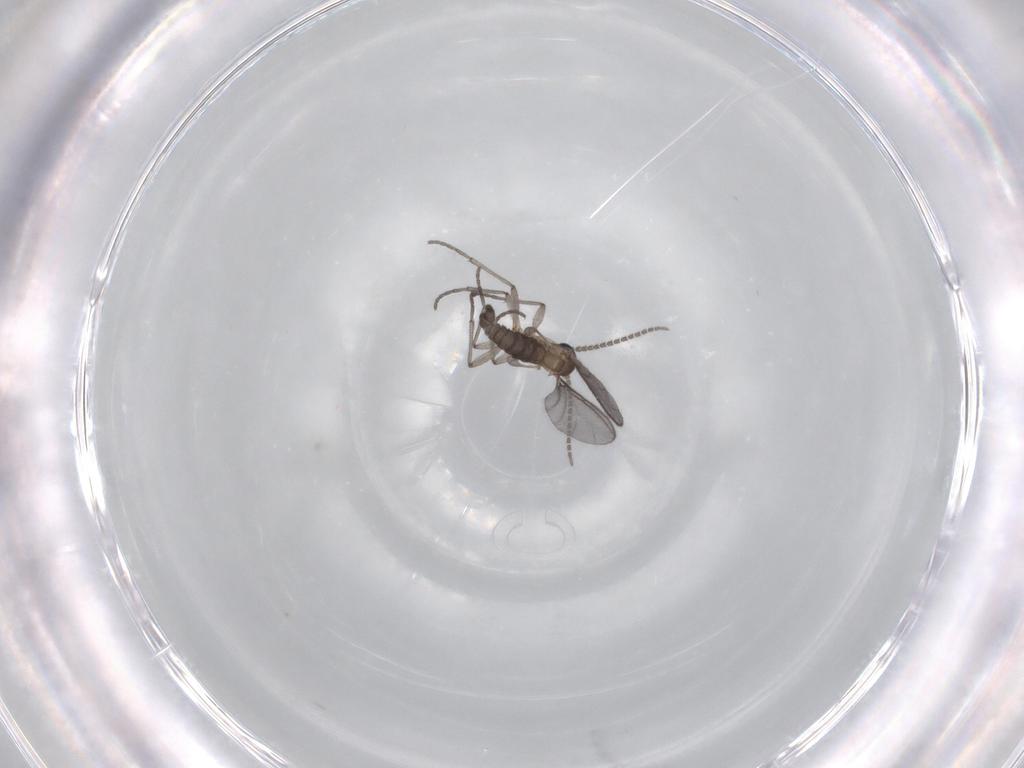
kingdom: Animalia
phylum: Arthropoda
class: Insecta
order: Diptera
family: Sciaridae
